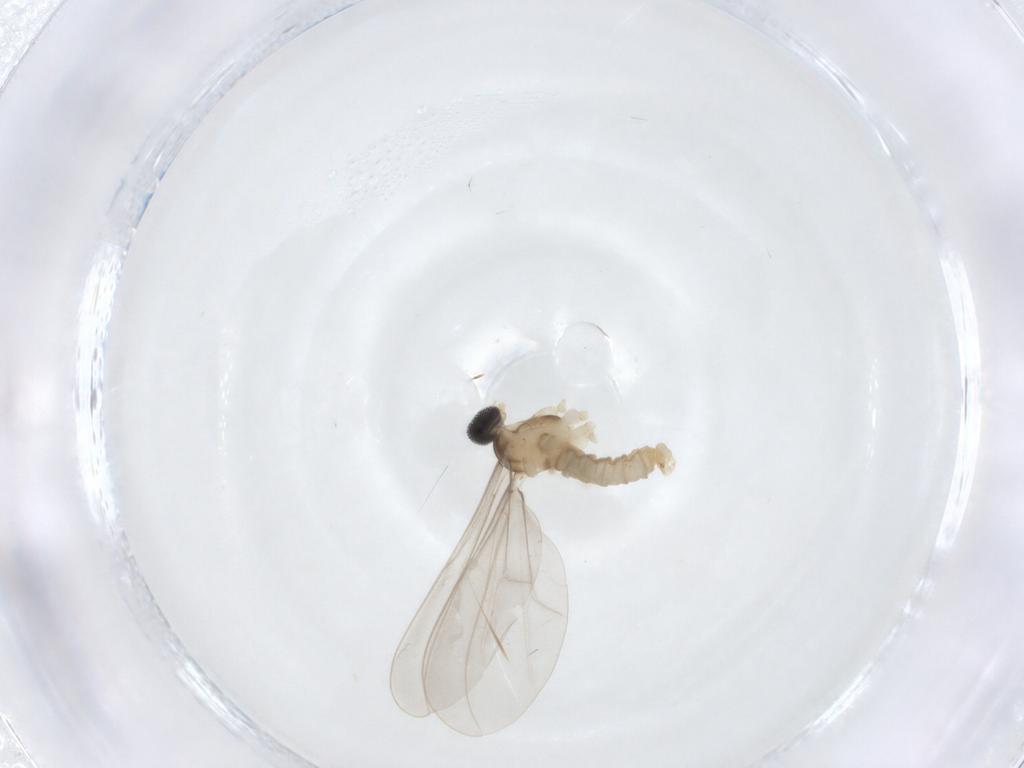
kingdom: Animalia
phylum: Arthropoda
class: Insecta
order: Diptera
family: Cecidomyiidae
